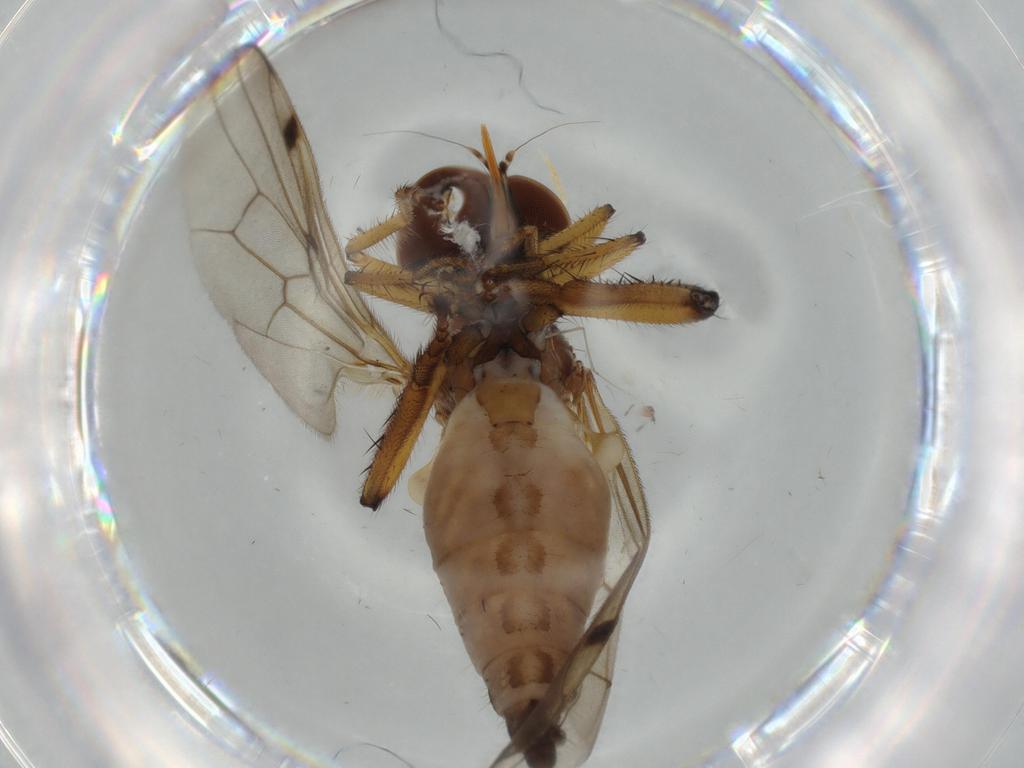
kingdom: Animalia
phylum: Arthropoda
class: Insecta
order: Diptera
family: Hybotidae
